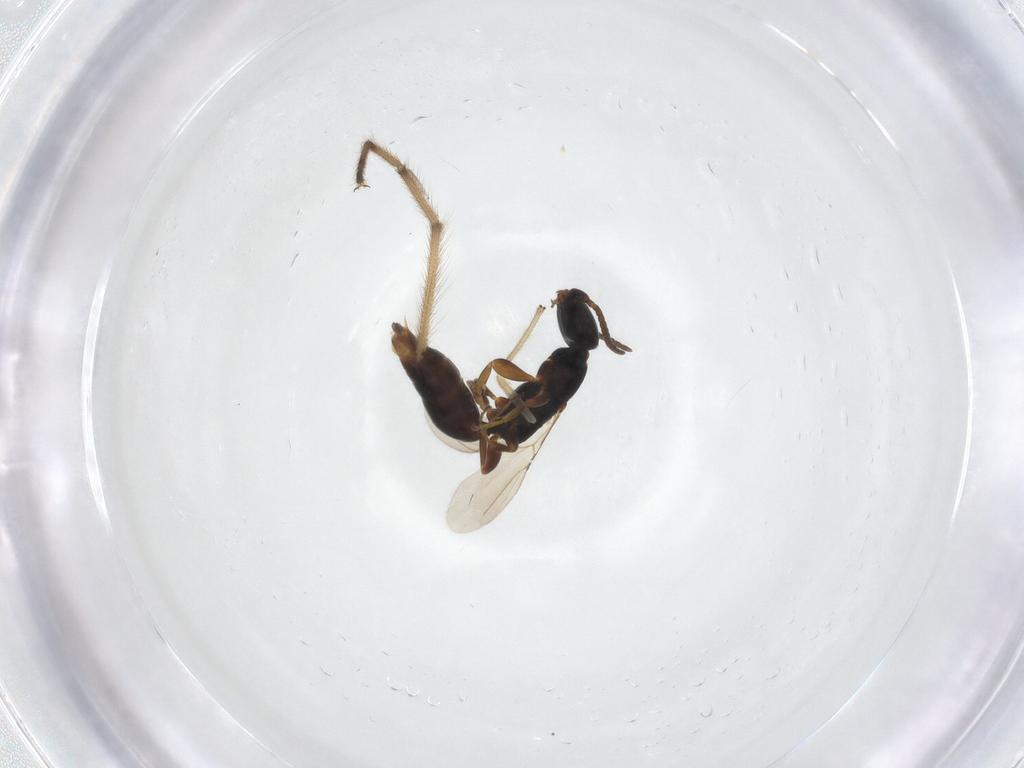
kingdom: Animalia
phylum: Arthropoda
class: Insecta
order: Hymenoptera
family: Bethylidae
